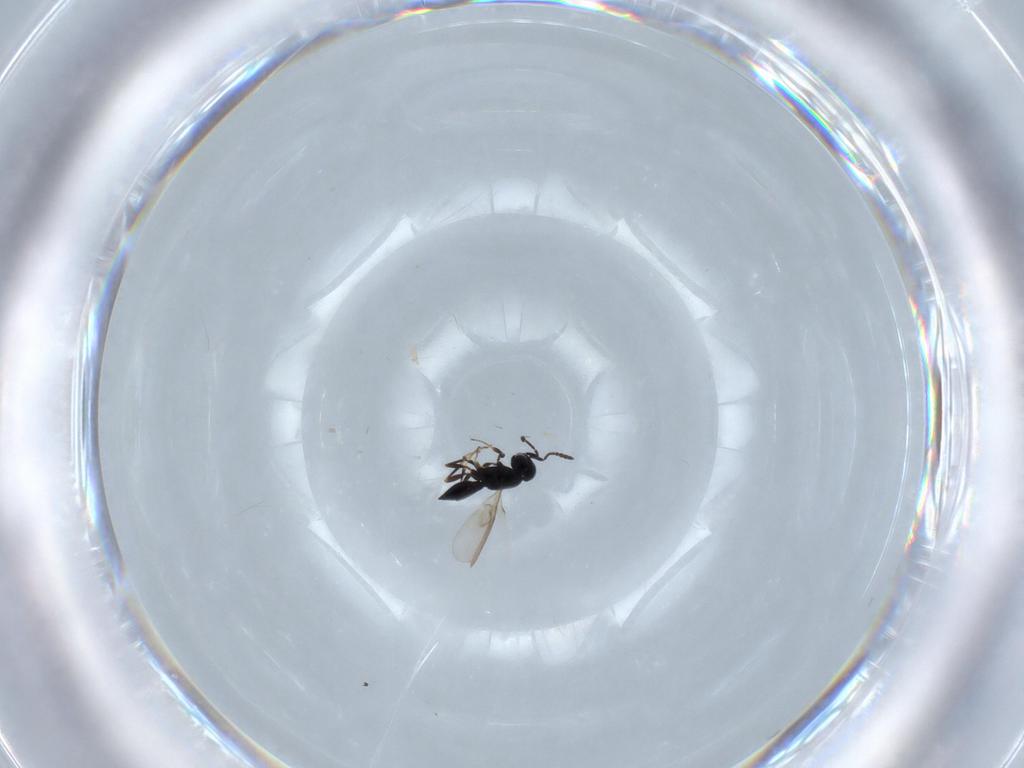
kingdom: Animalia
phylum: Arthropoda
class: Insecta
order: Hymenoptera
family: Scelionidae
